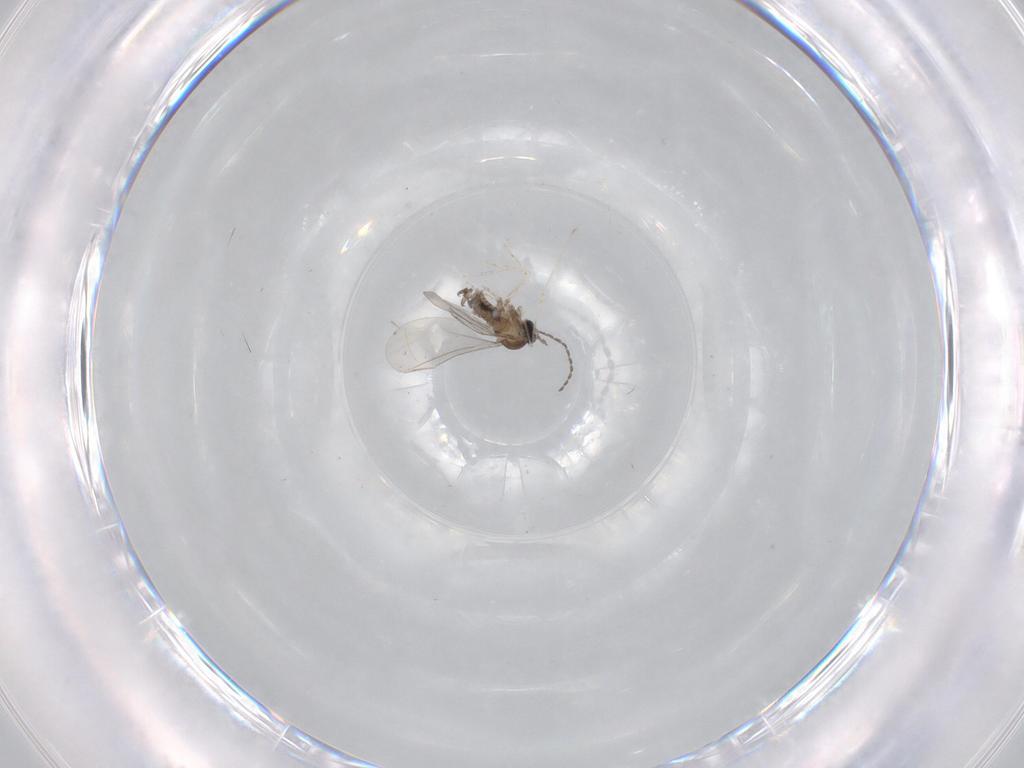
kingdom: Animalia
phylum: Arthropoda
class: Insecta
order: Diptera
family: Cecidomyiidae
